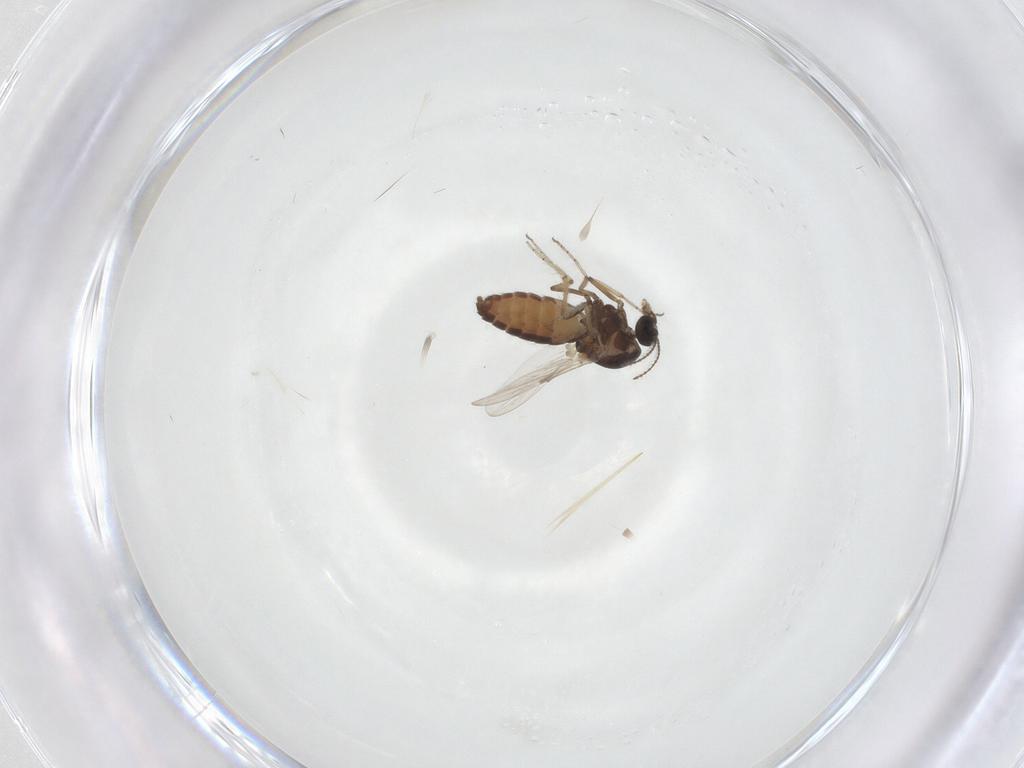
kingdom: Animalia
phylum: Arthropoda
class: Insecta
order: Diptera
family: Ceratopogonidae
